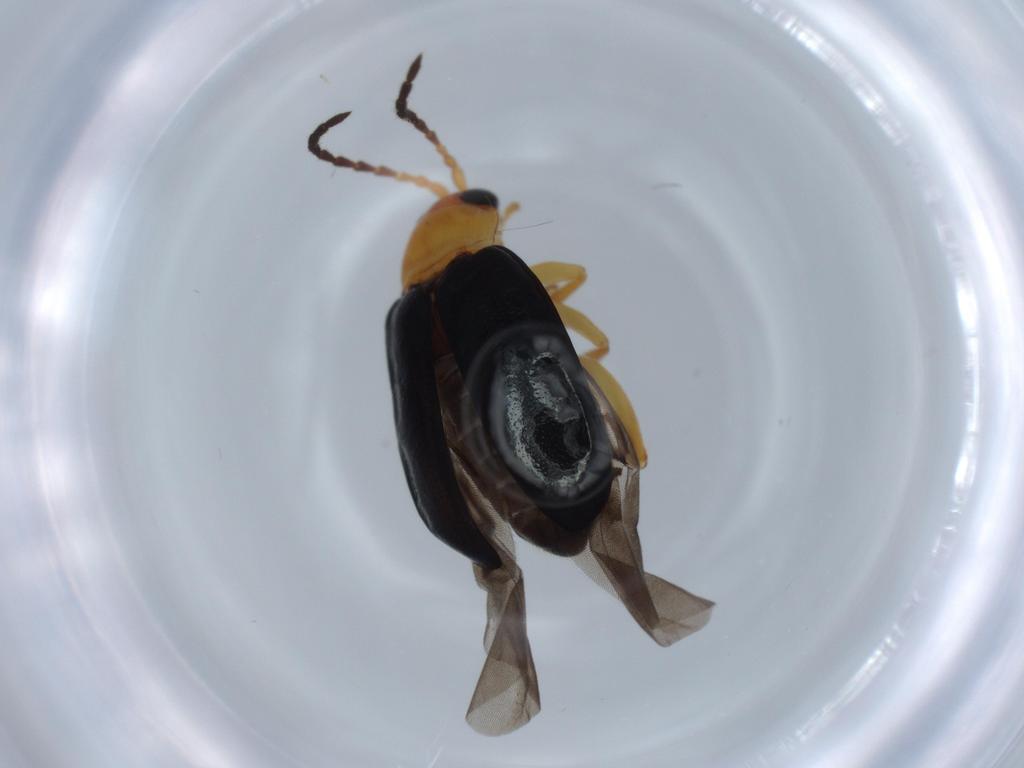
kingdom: Animalia
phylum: Arthropoda
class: Insecta
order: Coleoptera
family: Chrysomelidae
